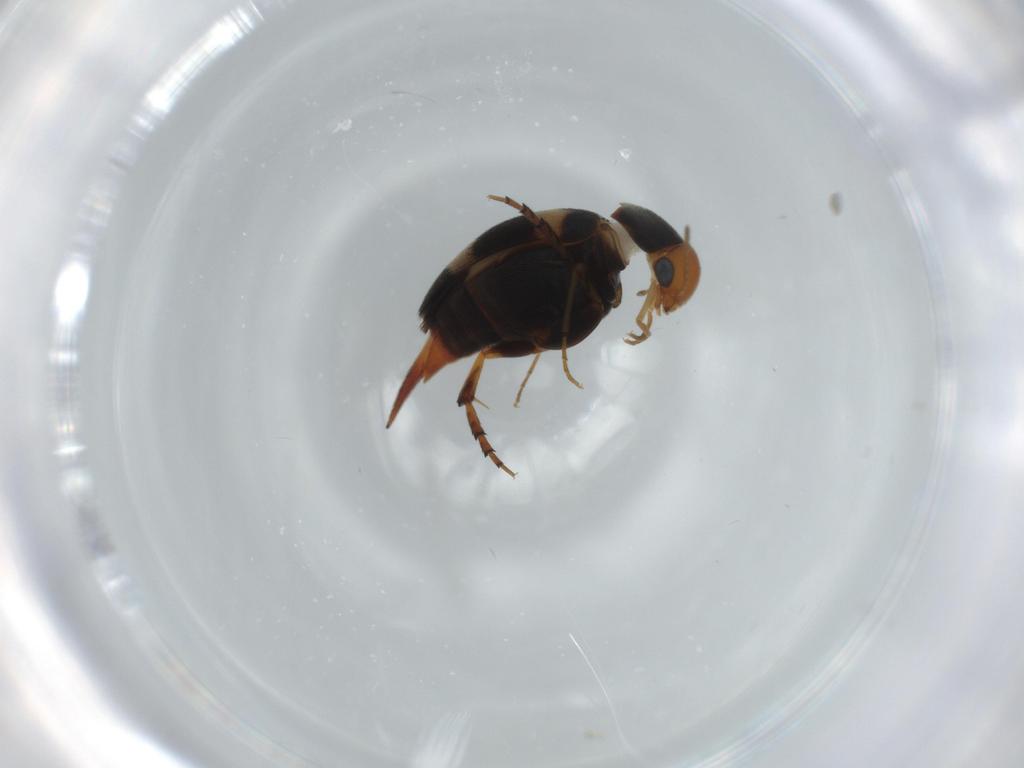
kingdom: Animalia
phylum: Arthropoda
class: Insecta
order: Coleoptera
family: Mordellidae
